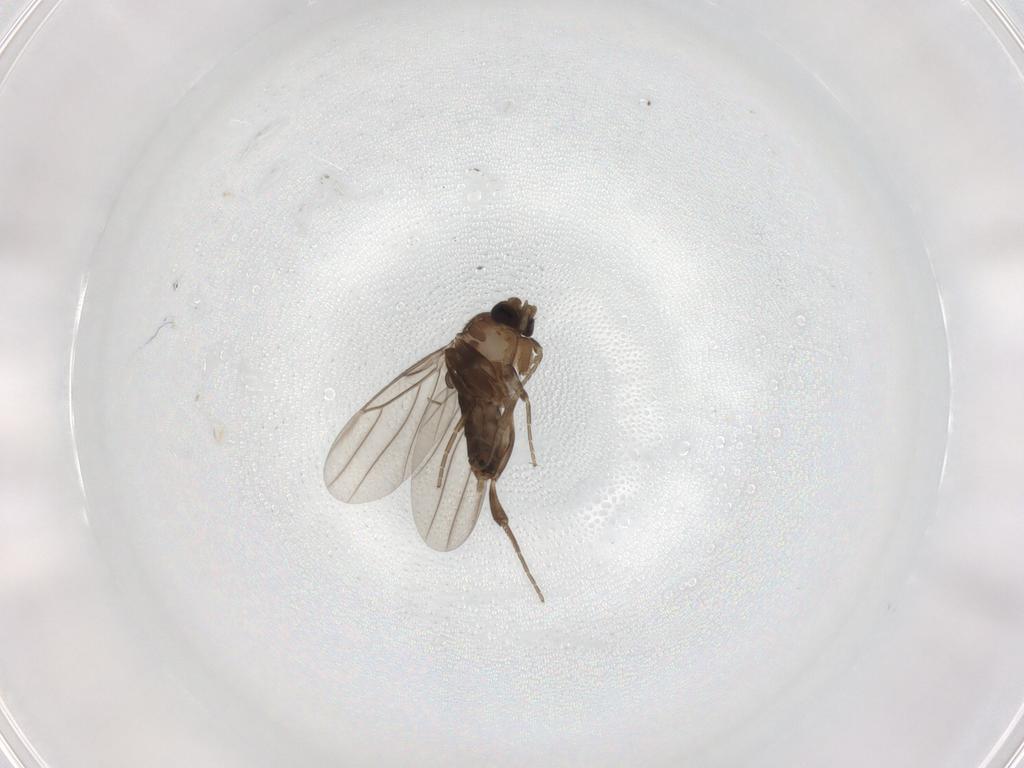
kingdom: Animalia
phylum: Arthropoda
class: Insecta
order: Diptera
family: Phoridae
